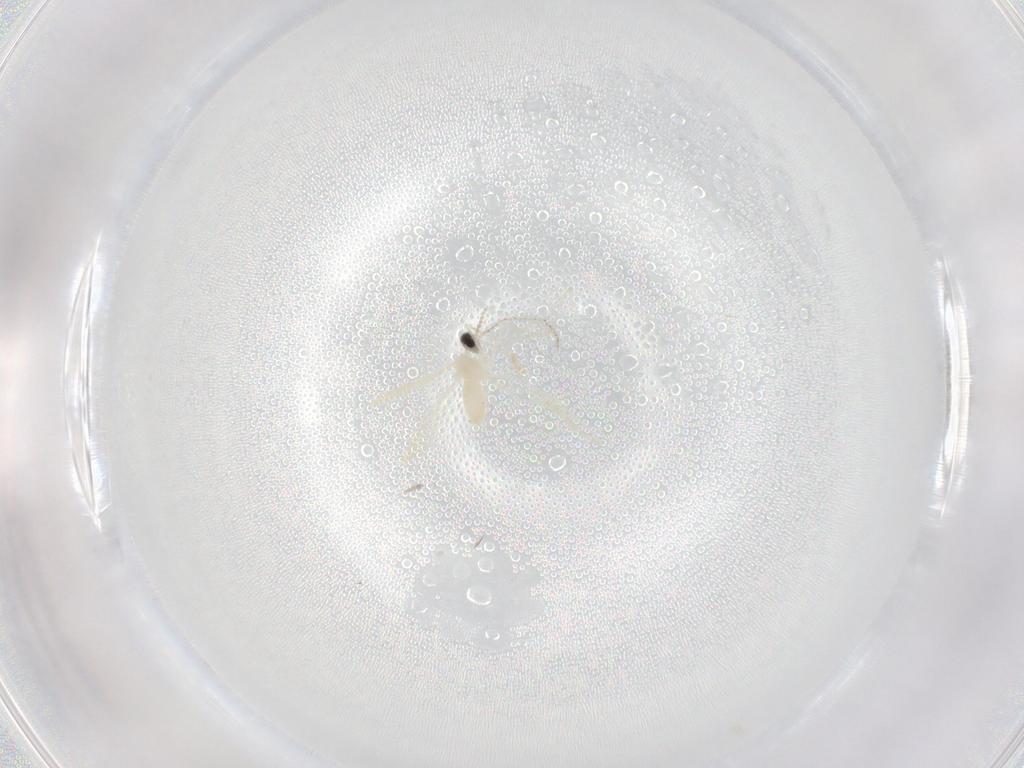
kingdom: Animalia
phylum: Arthropoda
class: Insecta
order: Diptera
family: Cecidomyiidae
